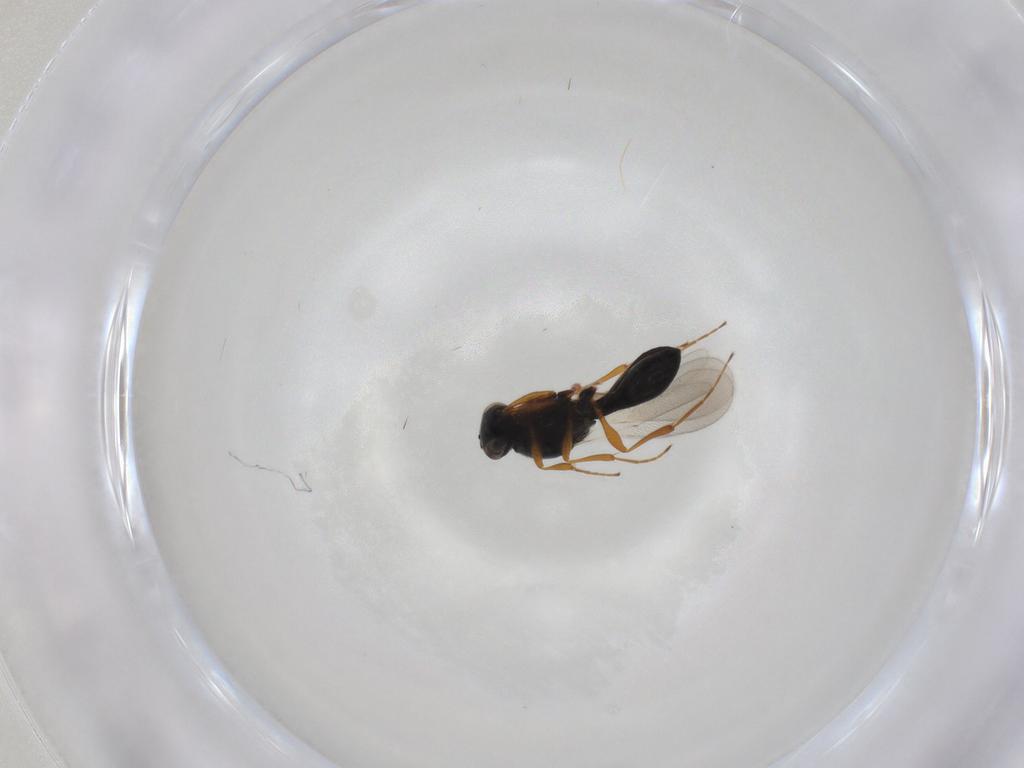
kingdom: Animalia
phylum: Arthropoda
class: Insecta
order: Hymenoptera
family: Platygastridae
